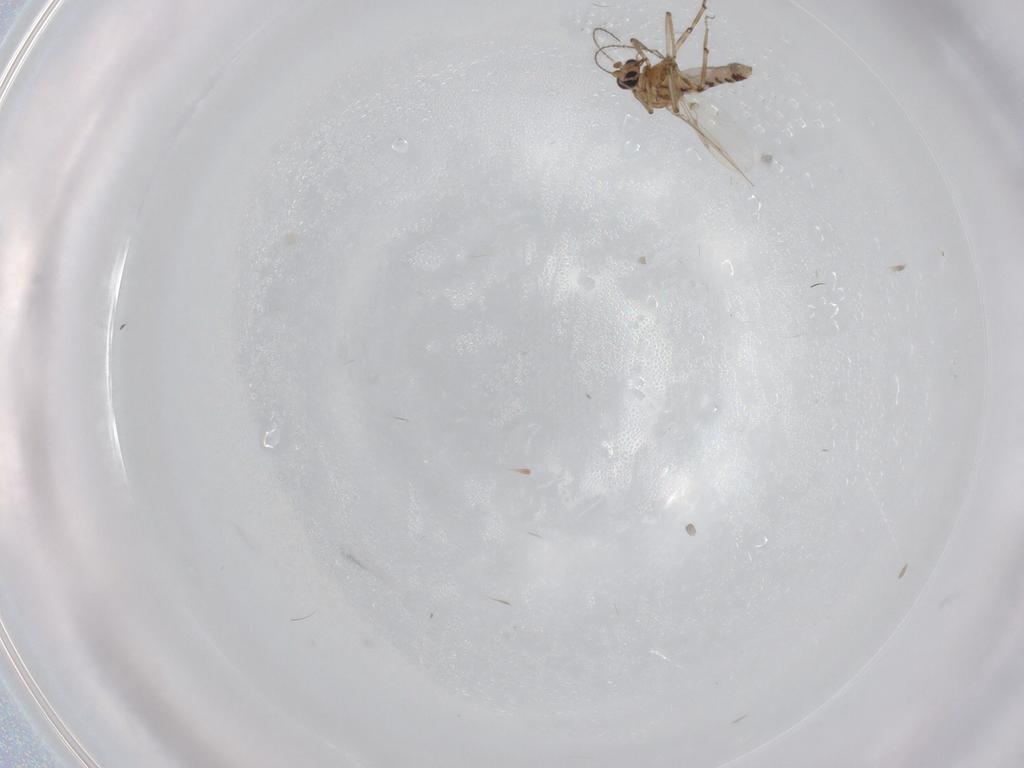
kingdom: Animalia
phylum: Arthropoda
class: Insecta
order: Diptera
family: Ceratopogonidae
